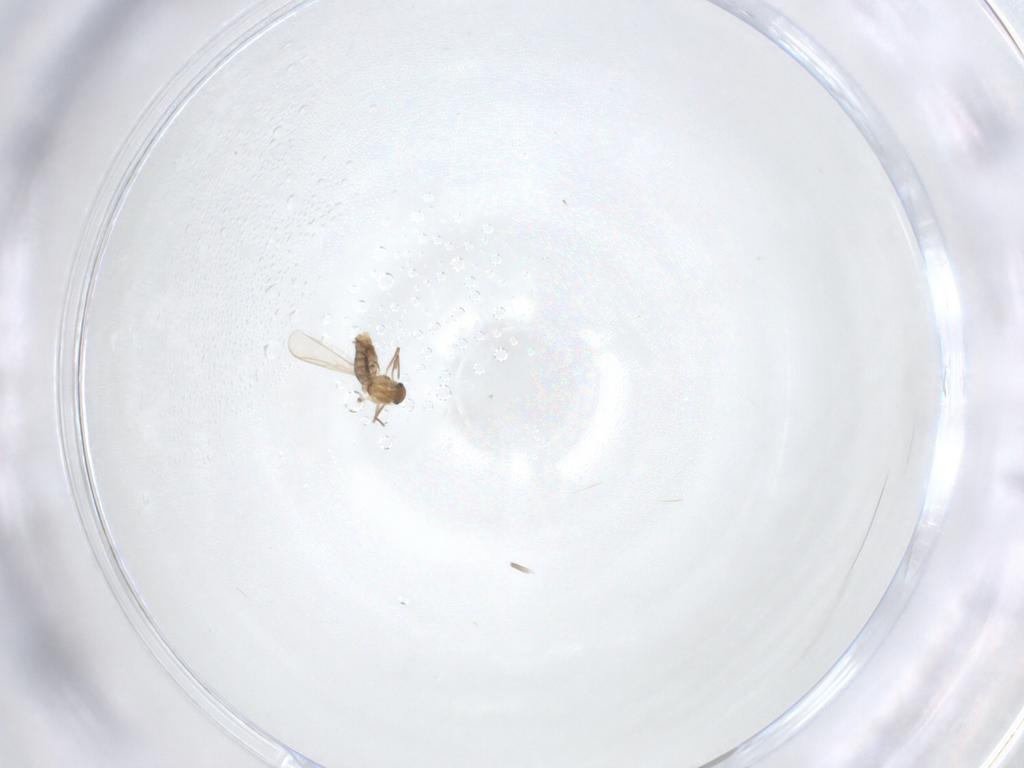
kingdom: Animalia
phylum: Arthropoda
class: Insecta
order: Diptera
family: Chironomidae
